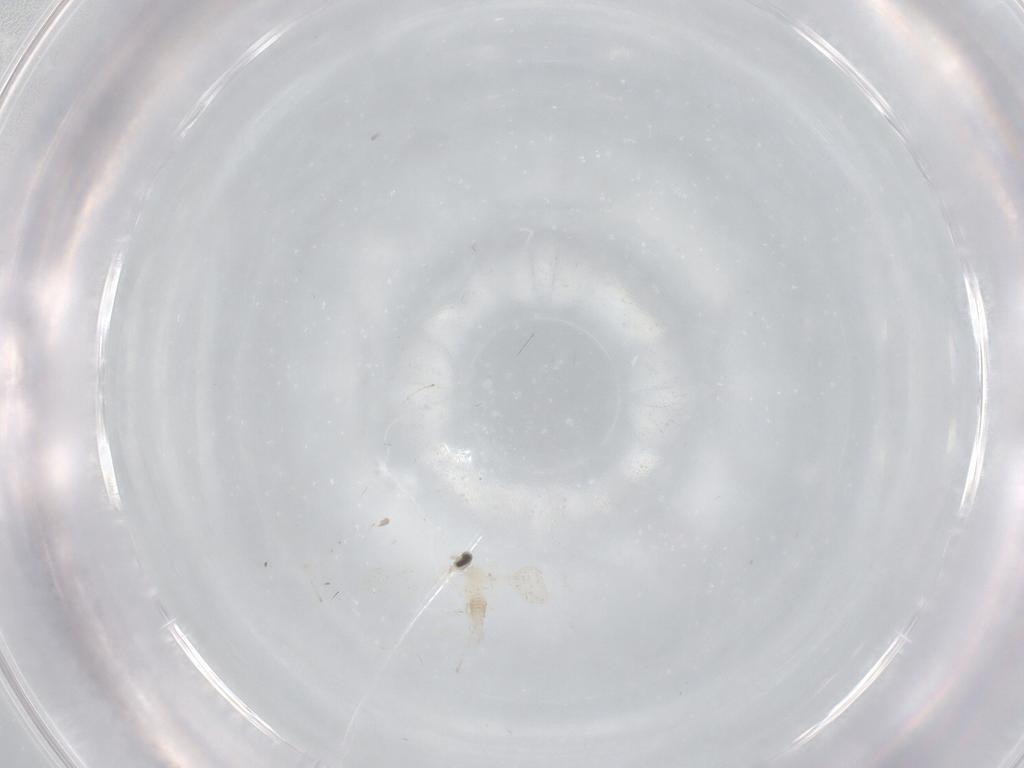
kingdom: Animalia
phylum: Arthropoda
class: Insecta
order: Diptera
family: Cecidomyiidae
